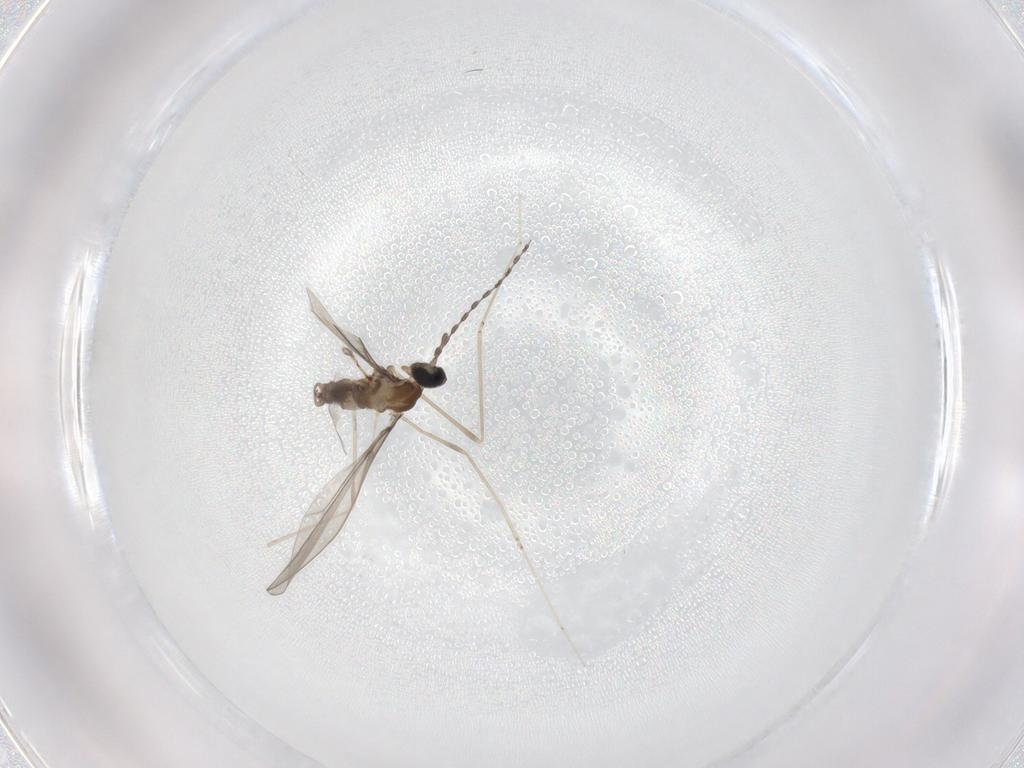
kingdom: Animalia
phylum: Arthropoda
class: Insecta
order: Diptera
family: Cecidomyiidae
